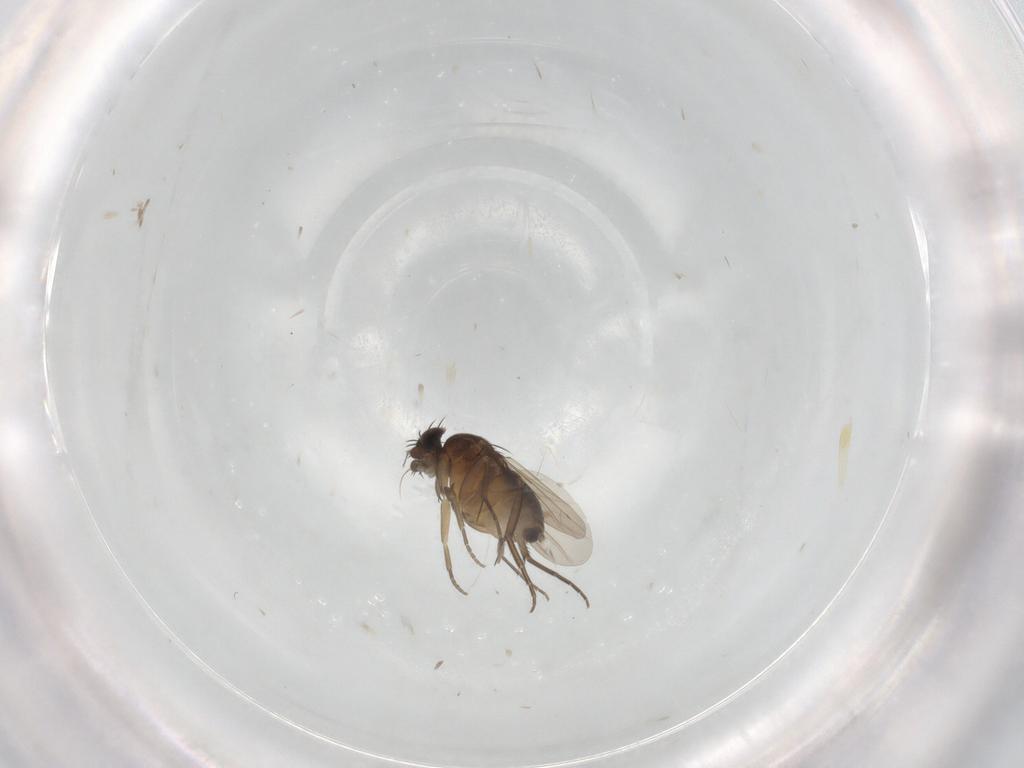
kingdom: Animalia
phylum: Arthropoda
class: Insecta
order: Diptera
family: Phoridae
